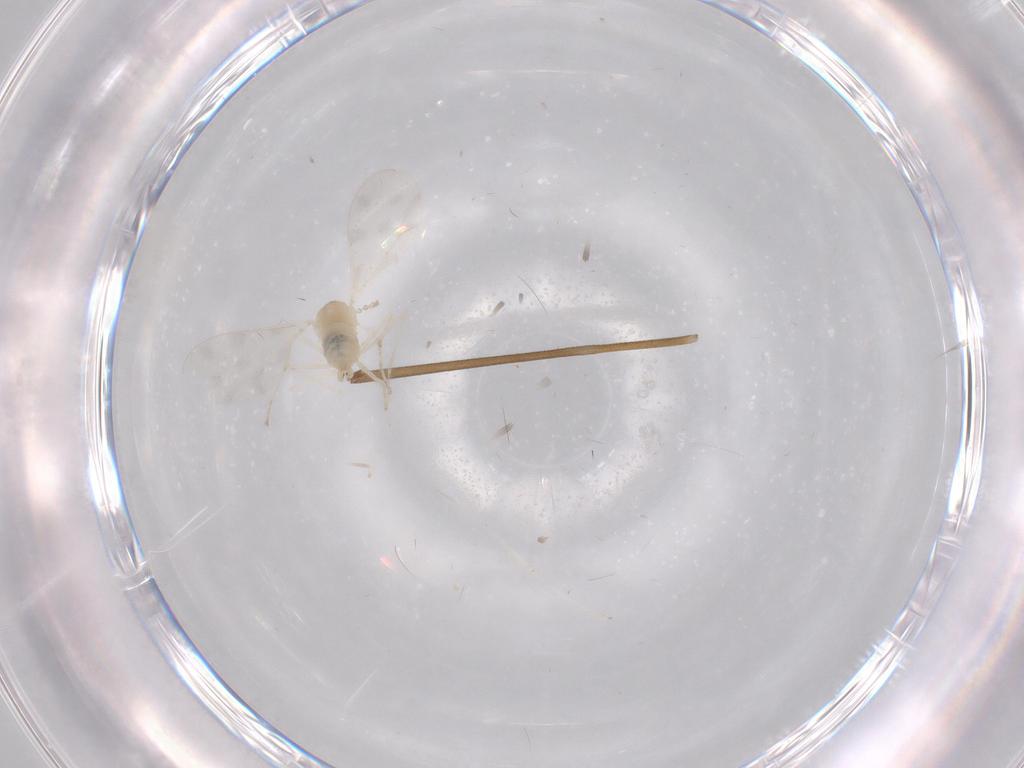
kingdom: Animalia
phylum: Arthropoda
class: Insecta
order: Diptera
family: Cecidomyiidae
